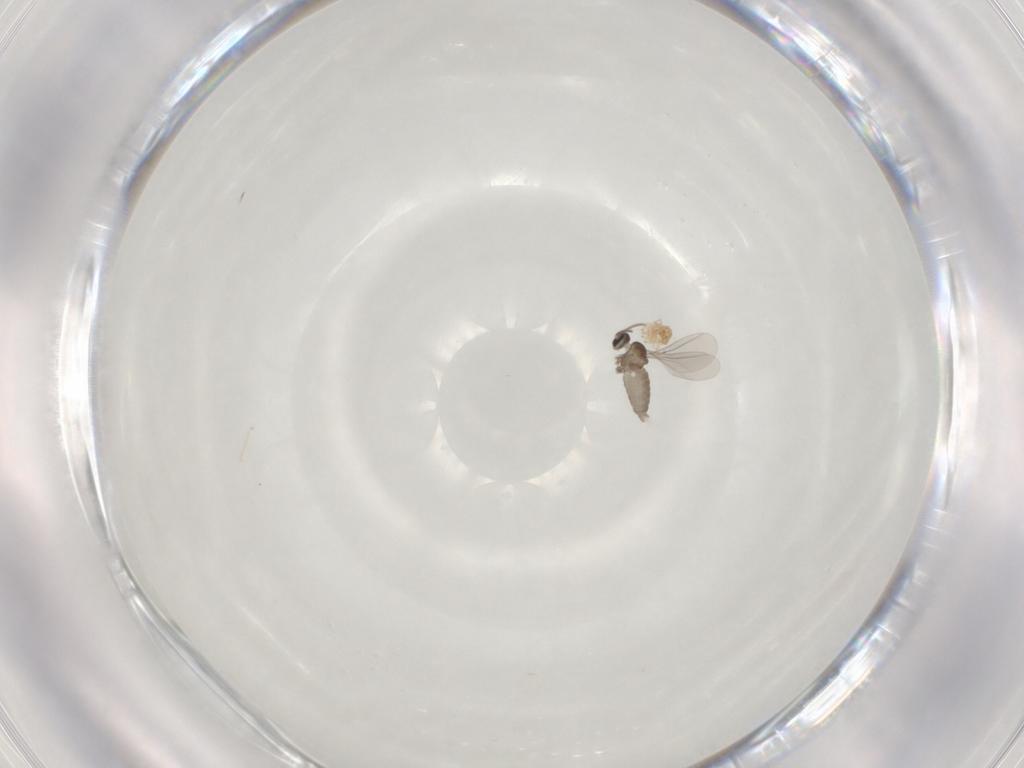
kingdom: Animalia
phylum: Arthropoda
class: Insecta
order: Diptera
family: Cecidomyiidae
